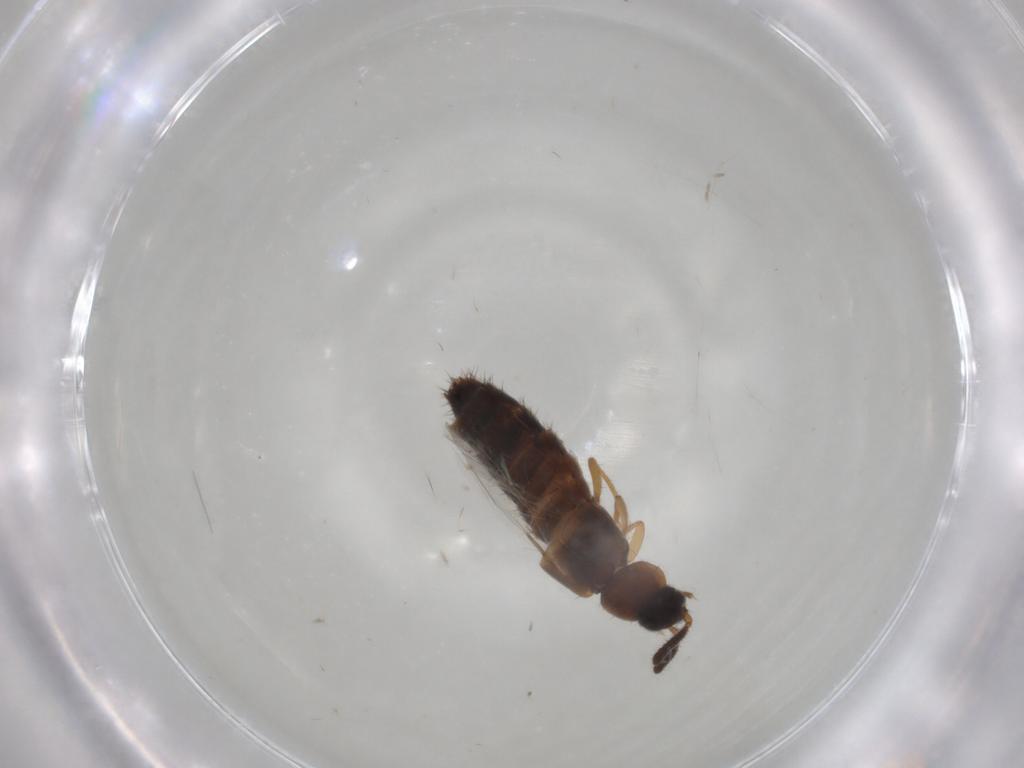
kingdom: Animalia
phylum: Arthropoda
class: Insecta
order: Coleoptera
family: Staphylinidae
